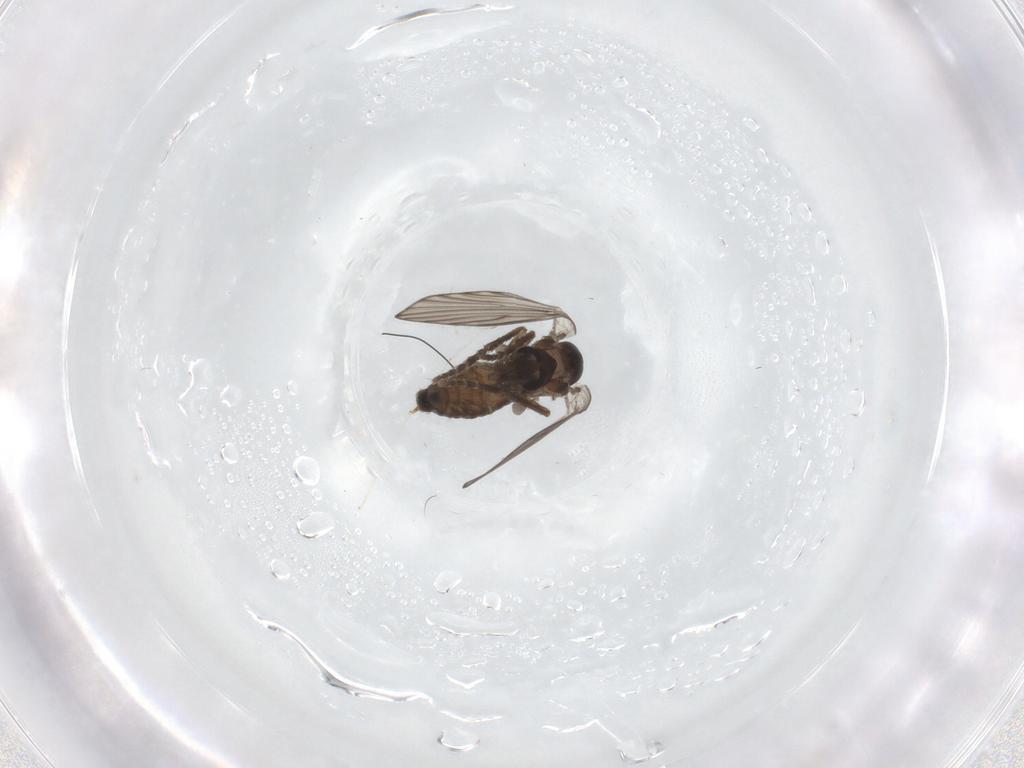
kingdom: Animalia
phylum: Arthropoda
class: Insecta
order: Diptera
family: Psychodidae
